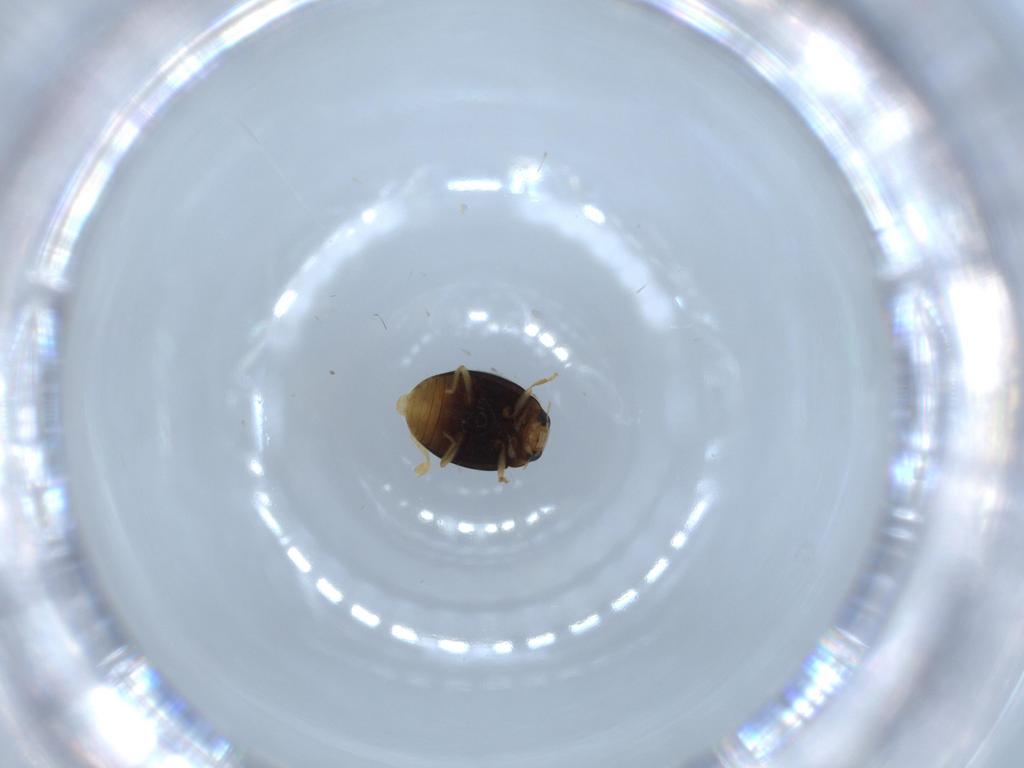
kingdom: Animalia
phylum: Arthropoda
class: Insecta
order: Coleoptera
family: Coccinellidae
